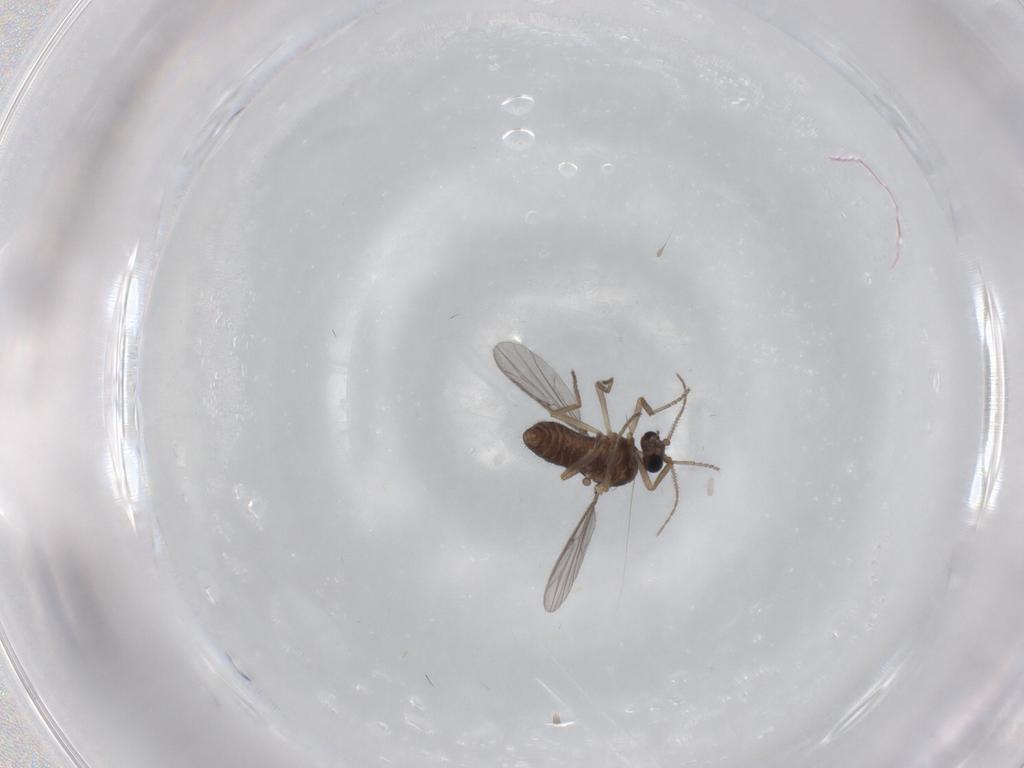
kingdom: Animalia
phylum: Arthropoda
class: Insecta
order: Diptera
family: Ceratopogonidae
